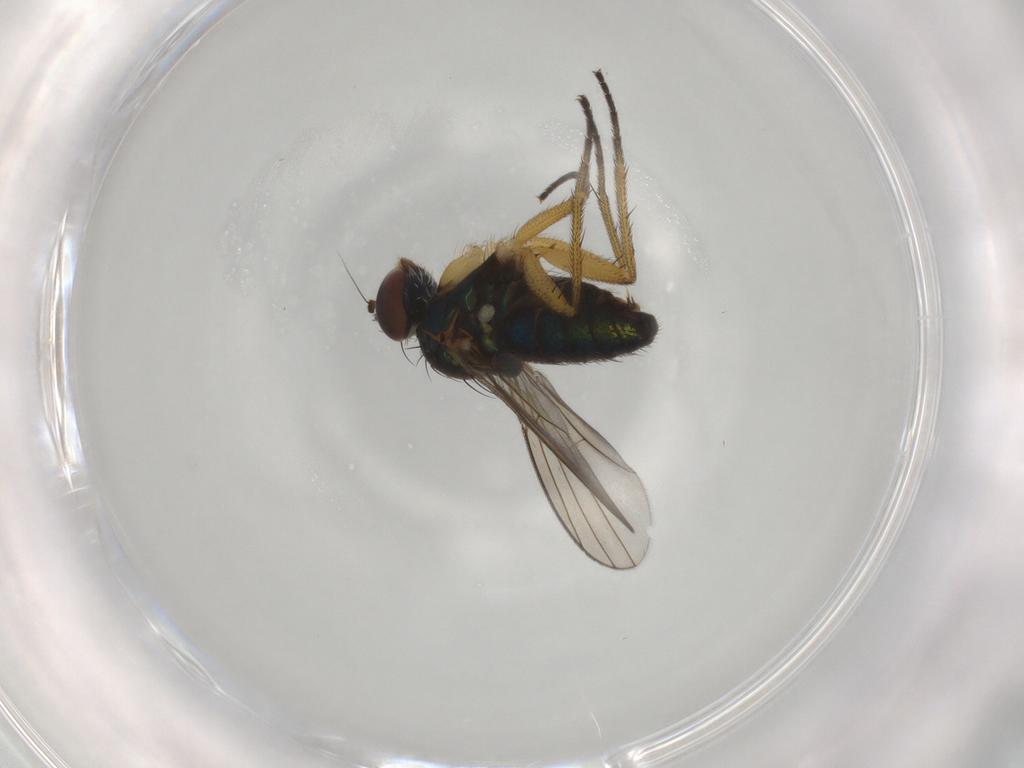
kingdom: Animalia
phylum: Arthropoda
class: Insecta
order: Diptera
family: Dolichopodidae
